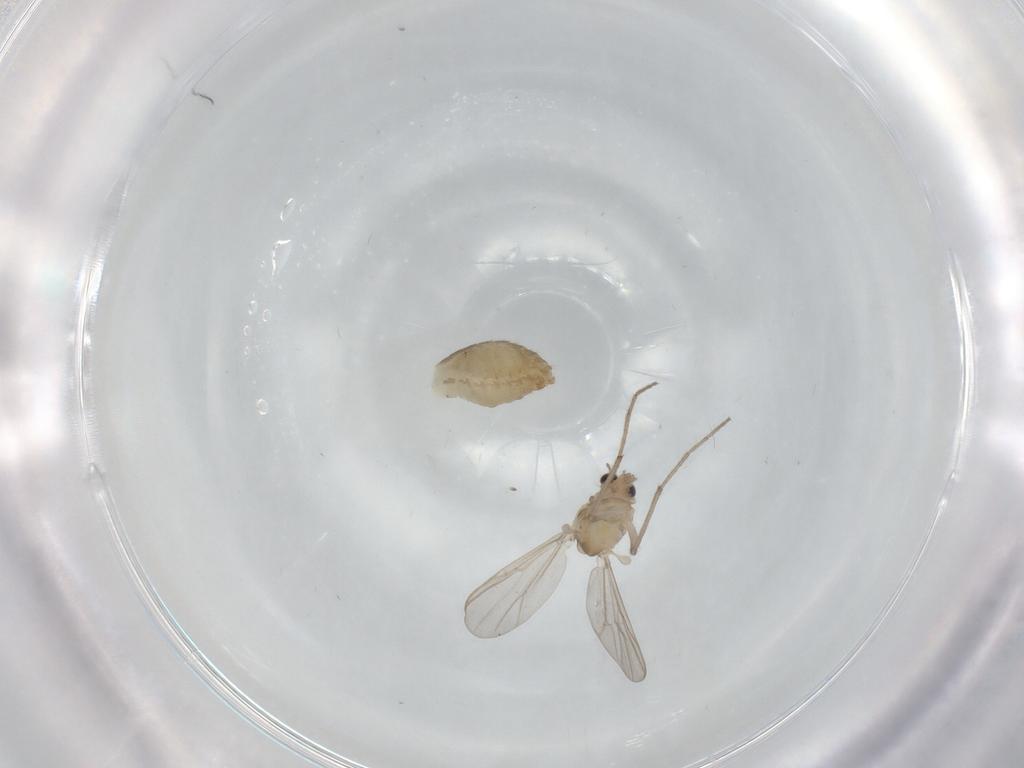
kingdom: Animalia
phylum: Arthropoda
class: Insecta
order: Diptera
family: Chironomidae
